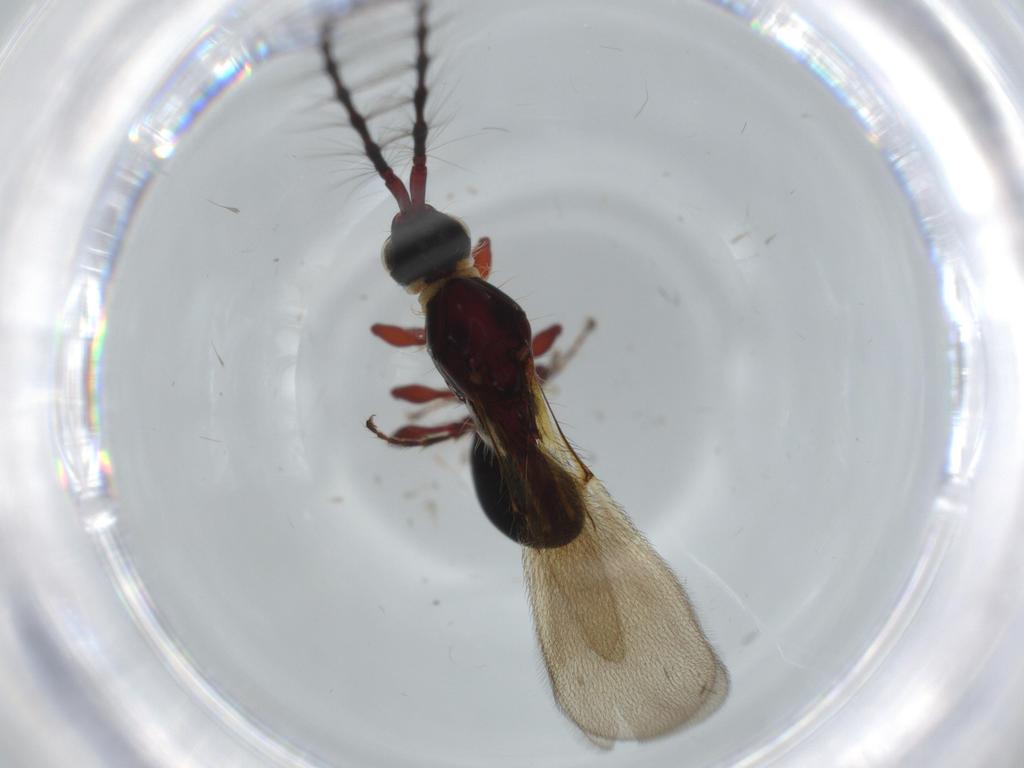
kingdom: Animalia
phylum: Arthropoda
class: Insecta
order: Hymenoptera
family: Diapriidae
